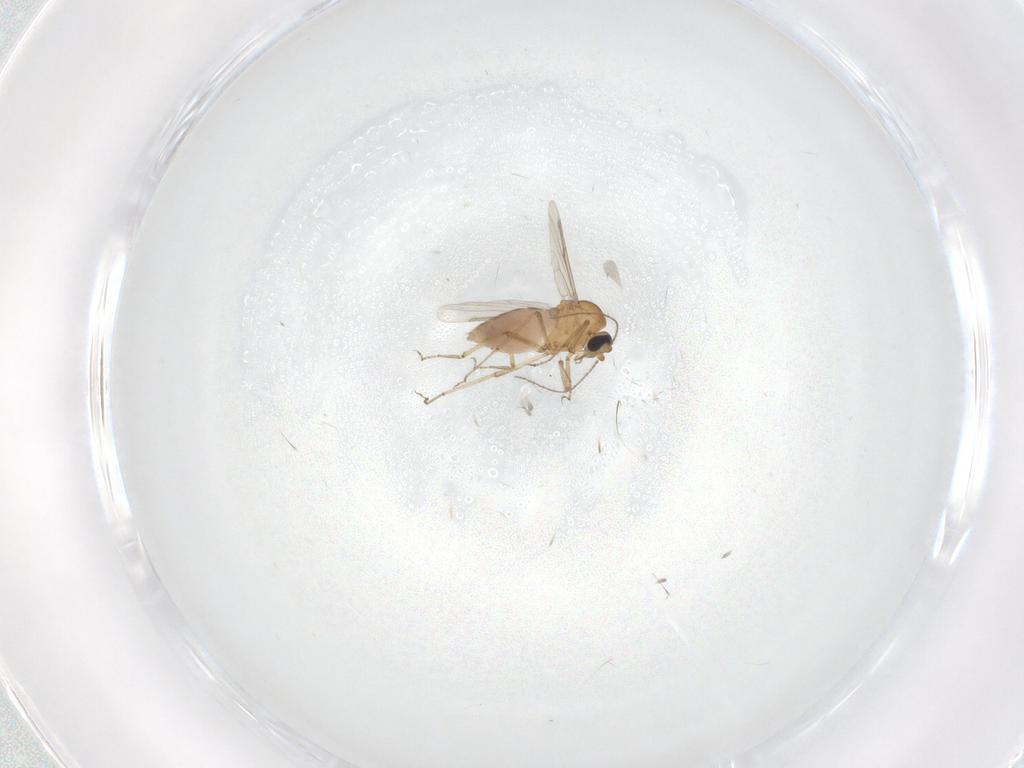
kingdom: Animalia
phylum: Arthropoda
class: Insecta
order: Diptera
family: Ceratopogonidae
